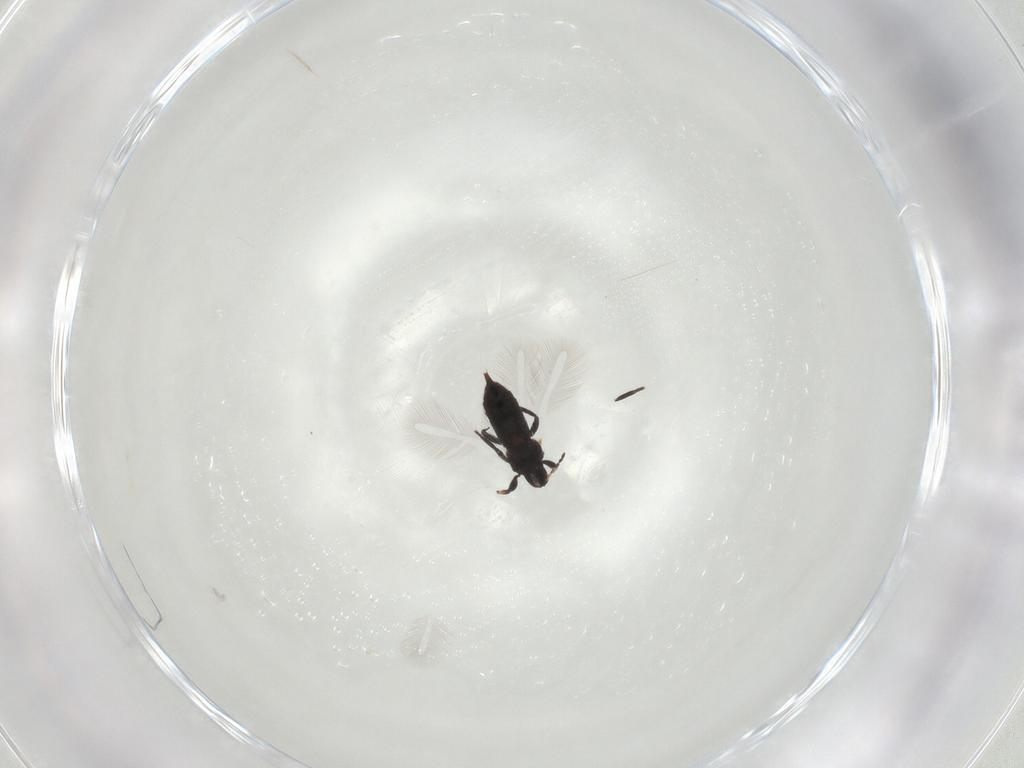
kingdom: Animalia
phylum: Arthropoda
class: Insecta
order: Thysanoptera
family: Phlaeothripidae
